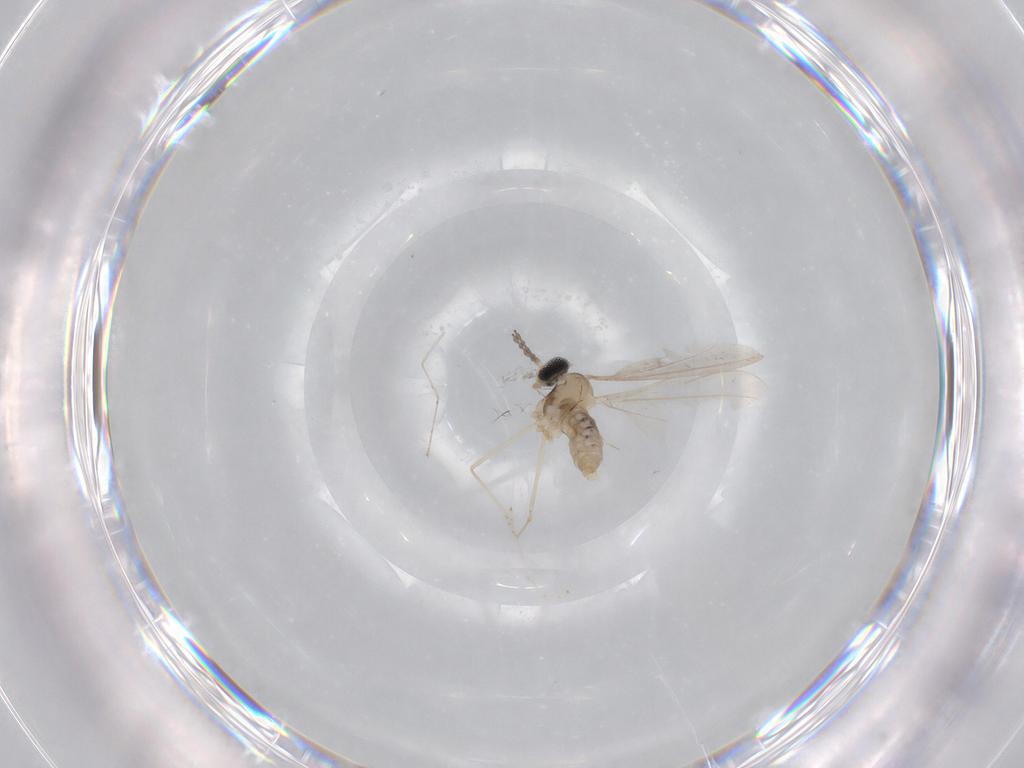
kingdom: Animalia
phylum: Arthropoda
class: Insecta
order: Diptera
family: Cecidomyiidae
